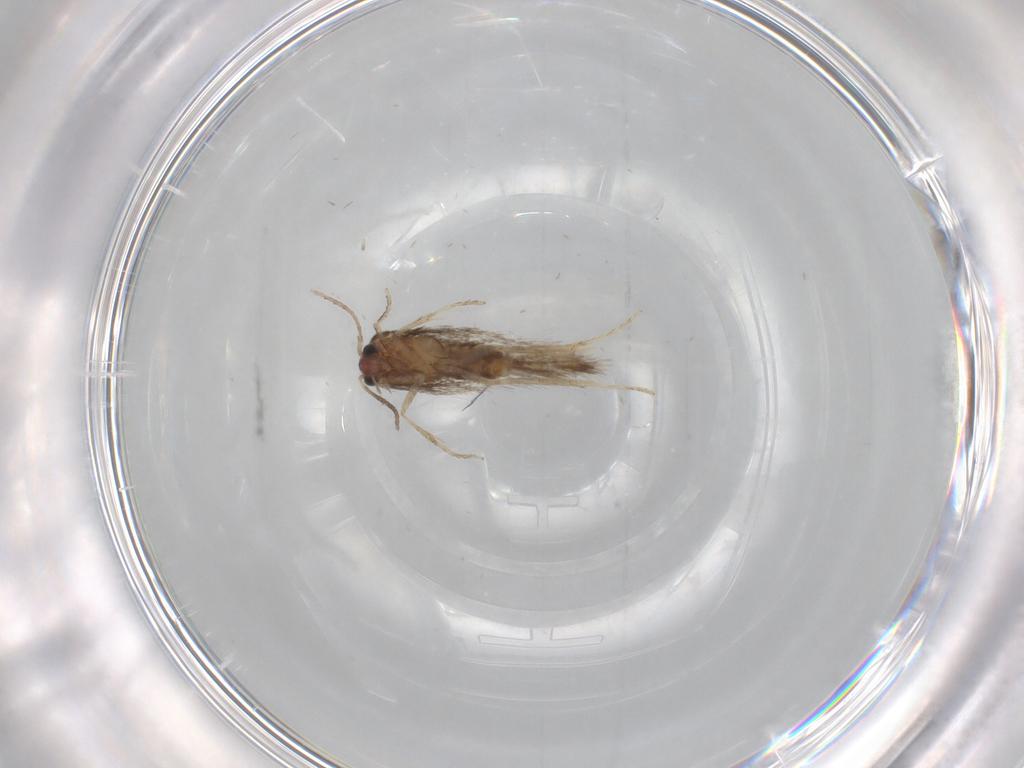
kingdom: Animalia
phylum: Arthropoda
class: Insecta
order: Lepidoptera
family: Nepticulidae
